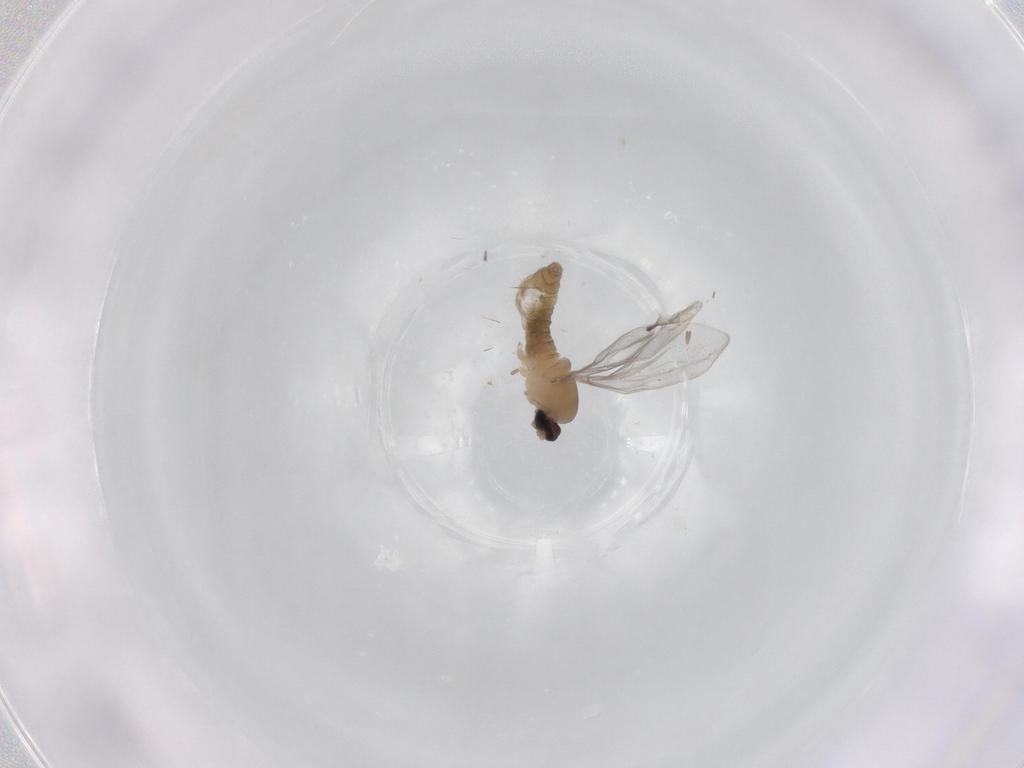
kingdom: Animalia
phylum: Arthropoda
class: Insecta
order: Diptera
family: Cecidomyiidae
